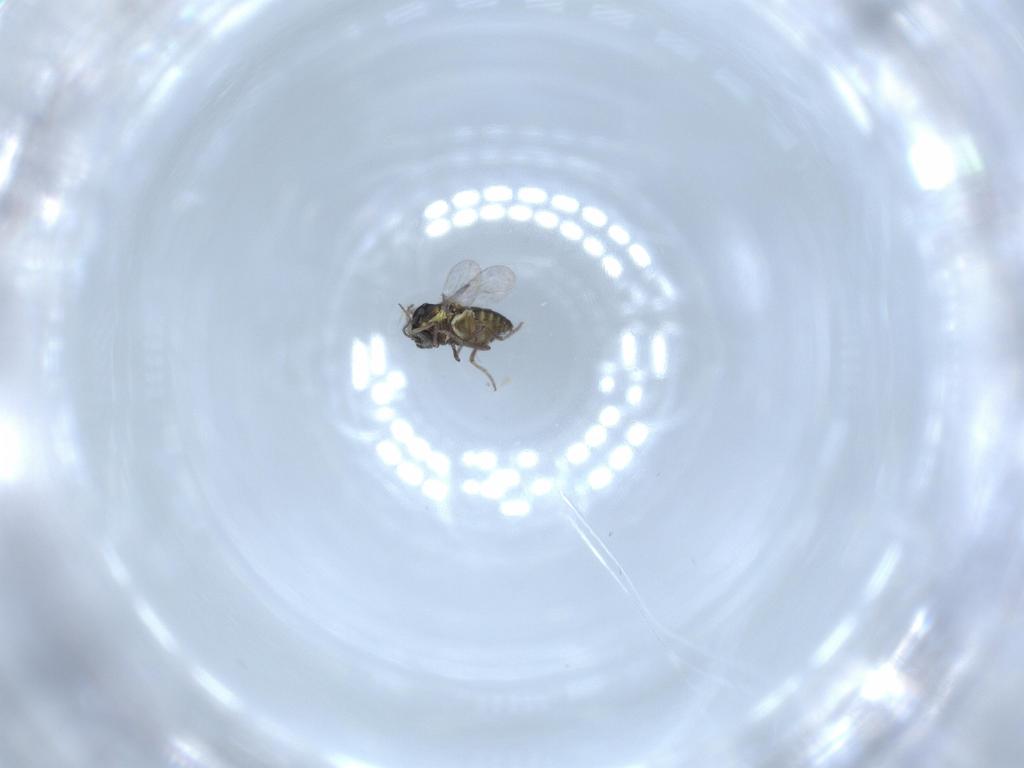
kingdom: Animalia
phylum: Arthropoda
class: Insecta
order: Diptera
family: Ceratopogonidae
